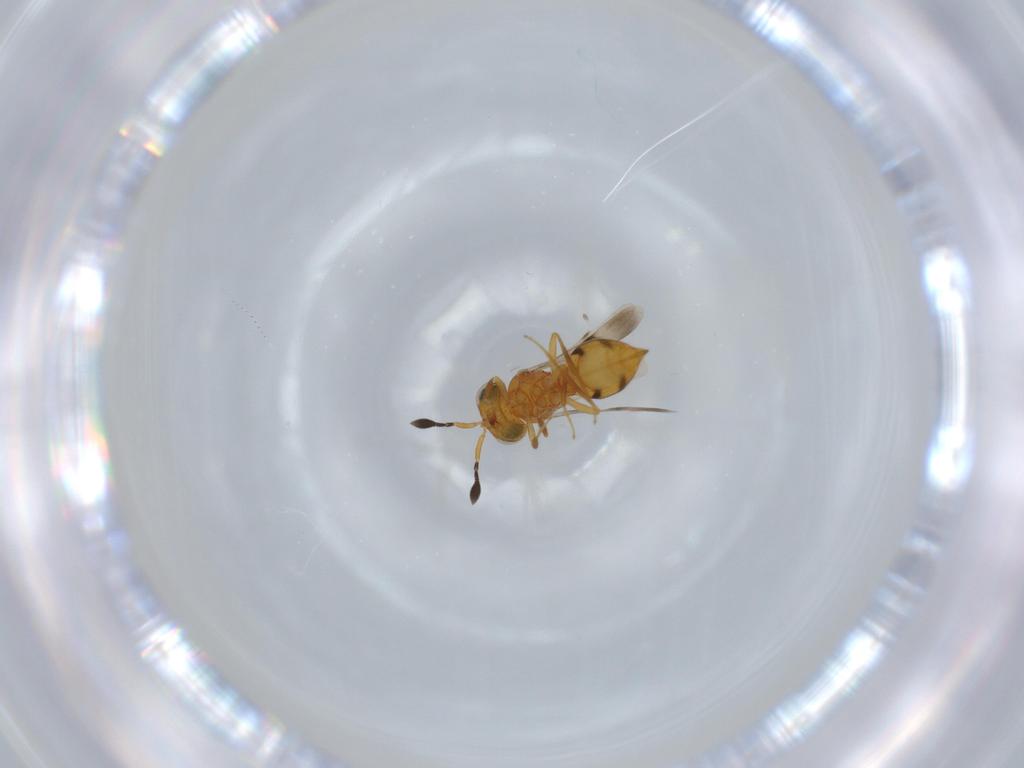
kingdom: Animalia
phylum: Arthropoda
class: Insecta
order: Hymenoptera
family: Scelionidae
